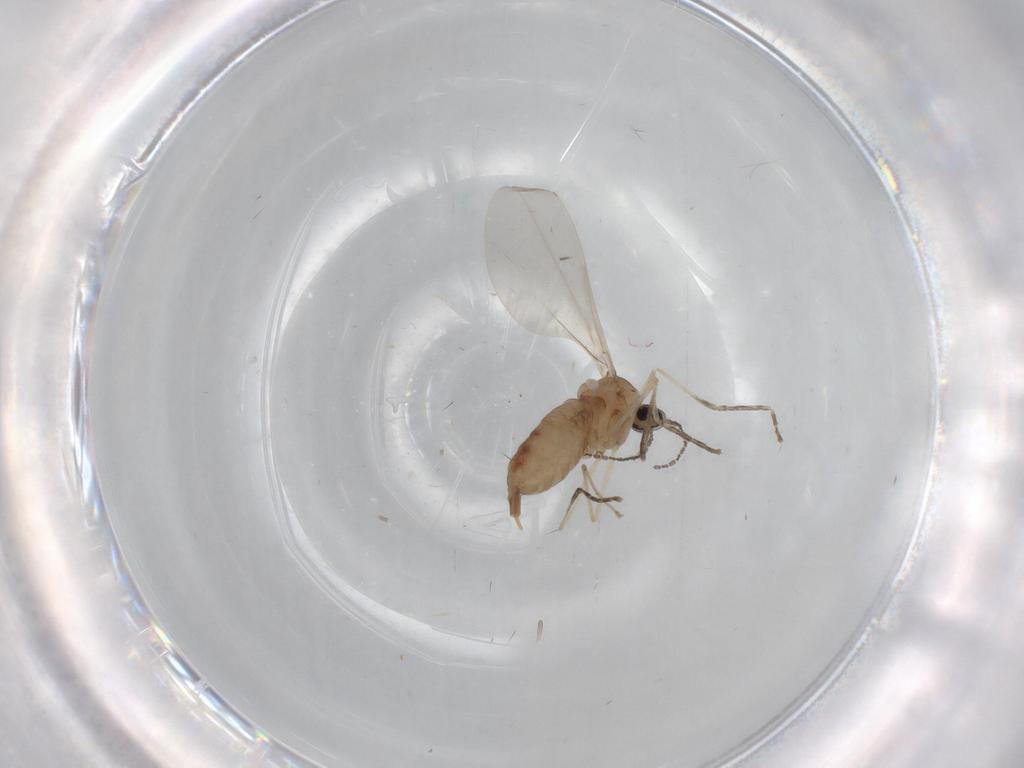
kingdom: Animalia
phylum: Arthropoda
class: Insecta
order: Diptera
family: Cecidomyiidae
